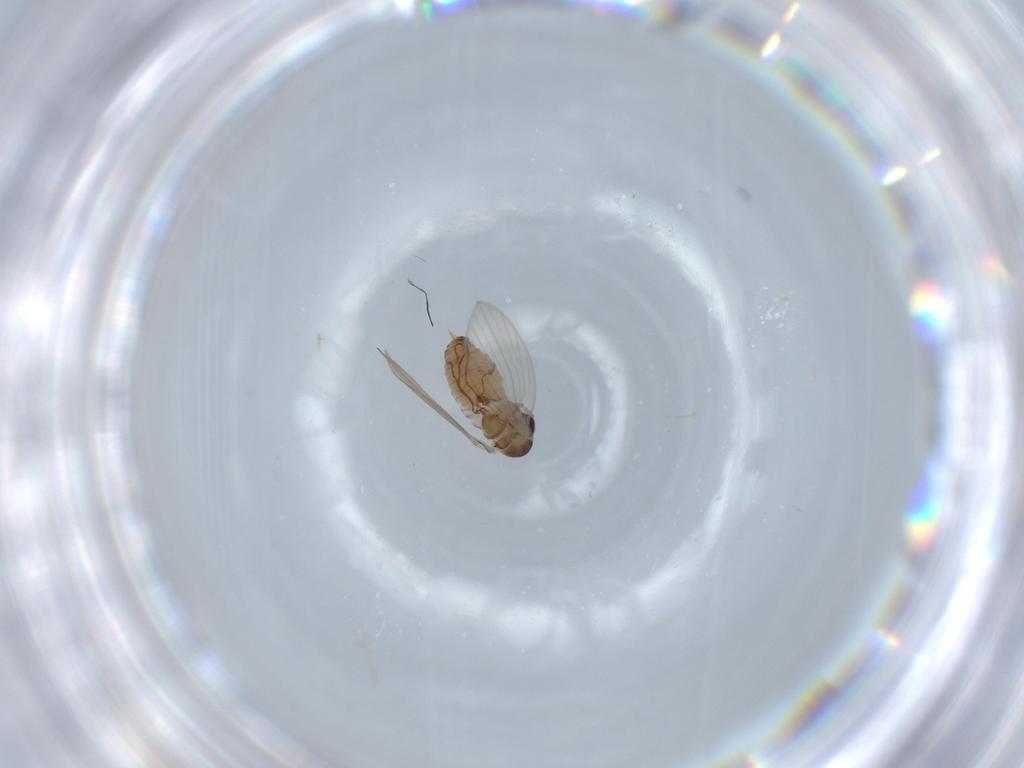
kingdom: Animalia
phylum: Arthropoda
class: Insecta
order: Diptera
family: Psychodidae
